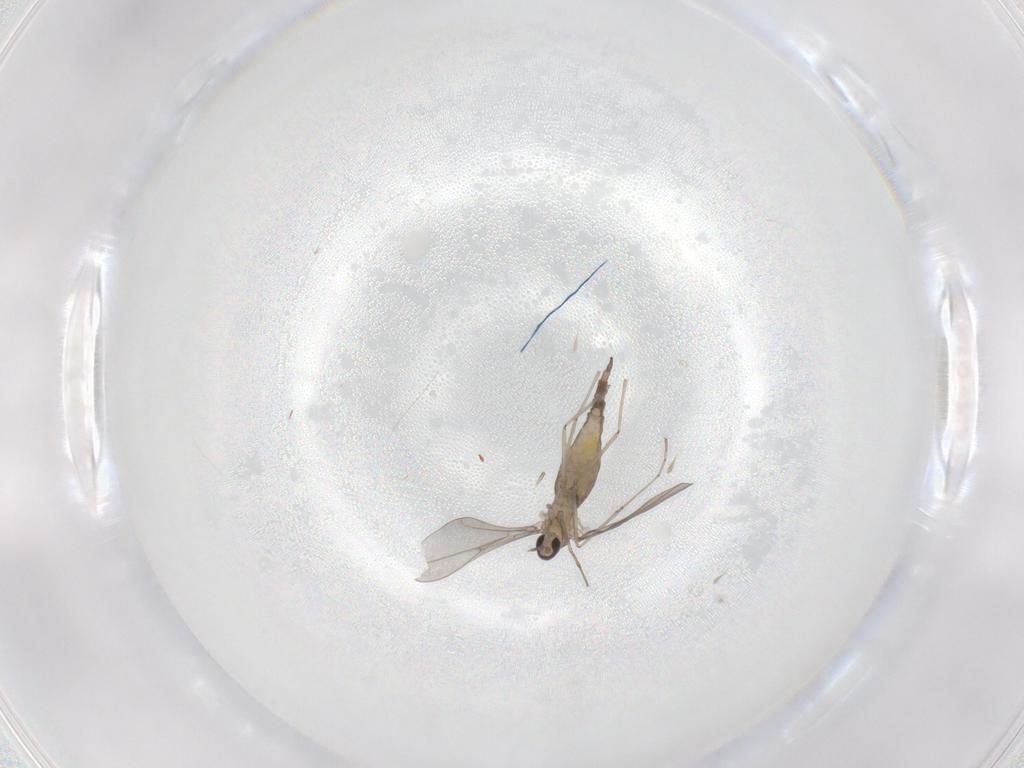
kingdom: Animalia
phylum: Arthropoda
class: Insecta
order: Diptera
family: Cecidomyiidae
